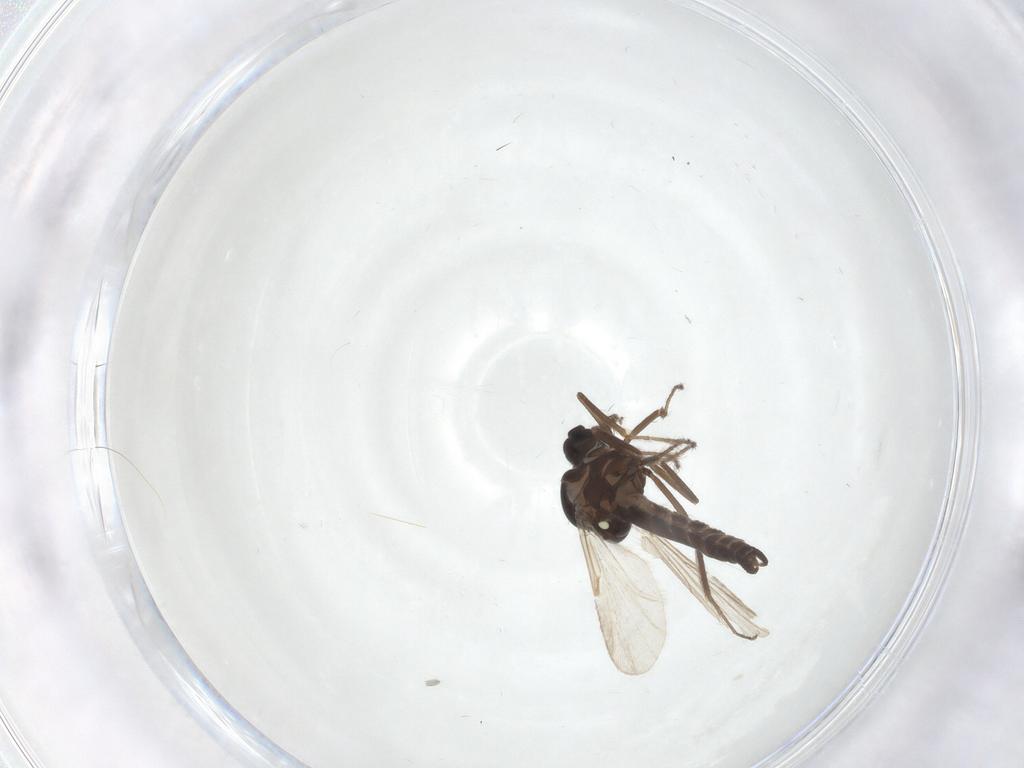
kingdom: Animalia
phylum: Arthropoda
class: Insecta
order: Diptera
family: Ceratopogonidae
